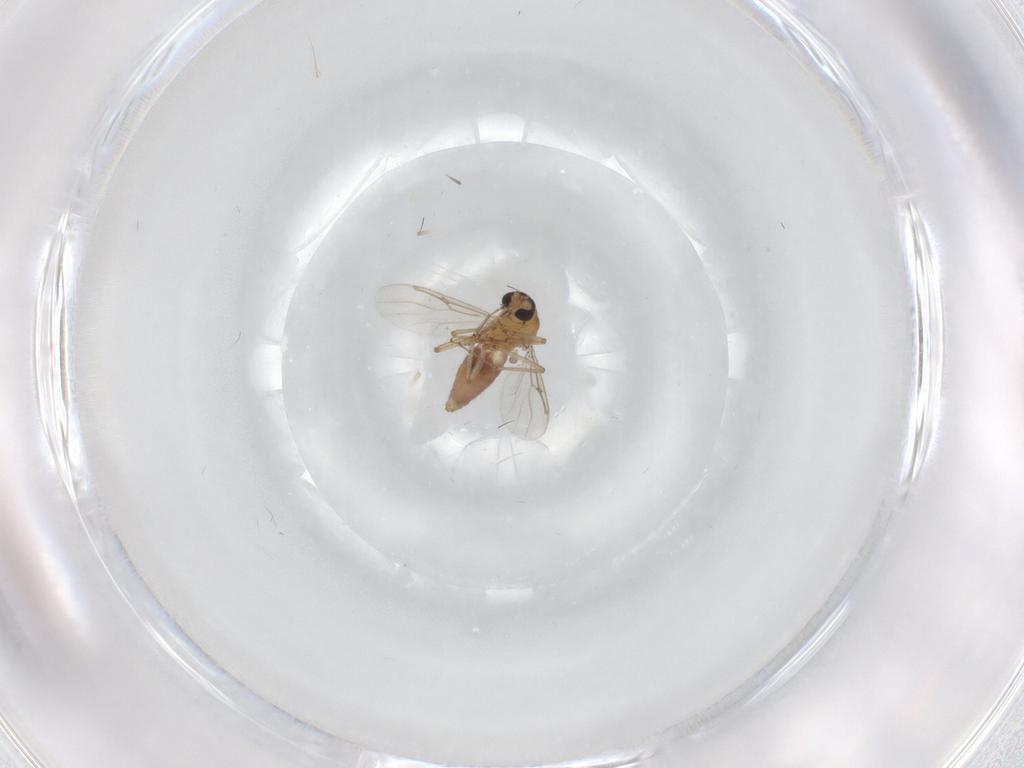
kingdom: Animalia
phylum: Arthropoda
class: Insecta
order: Diptera
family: Ceratopogonidae
